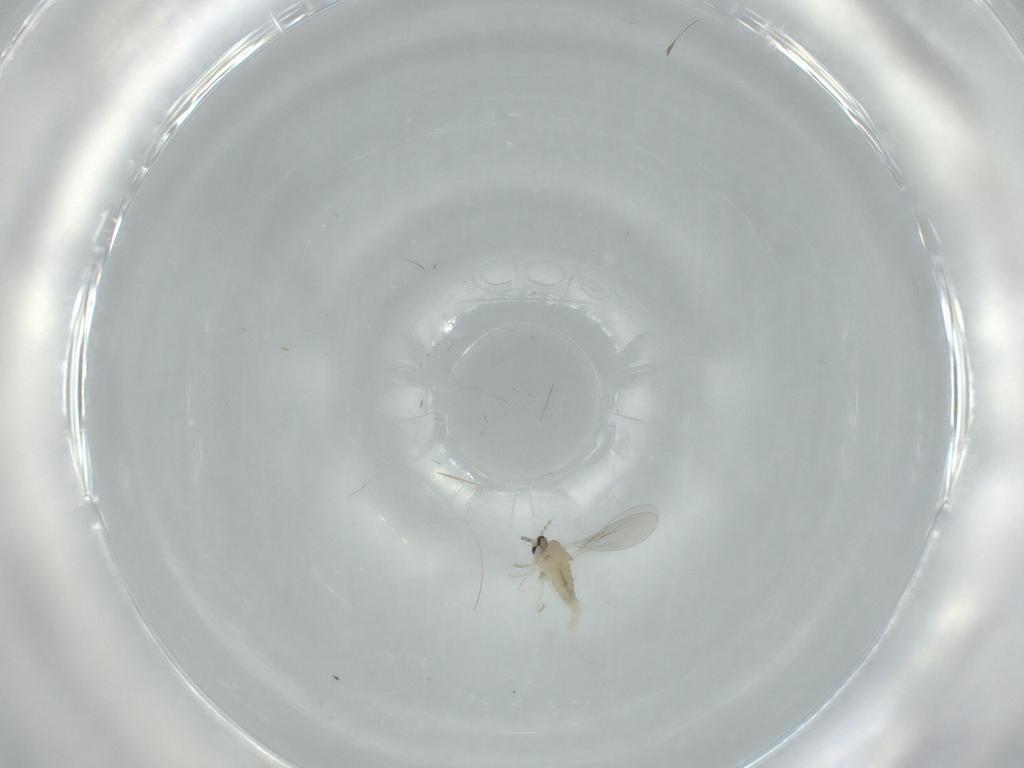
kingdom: Animalia
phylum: Arthropoda
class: Insecta
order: Diptera
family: Cecidomyiidae
